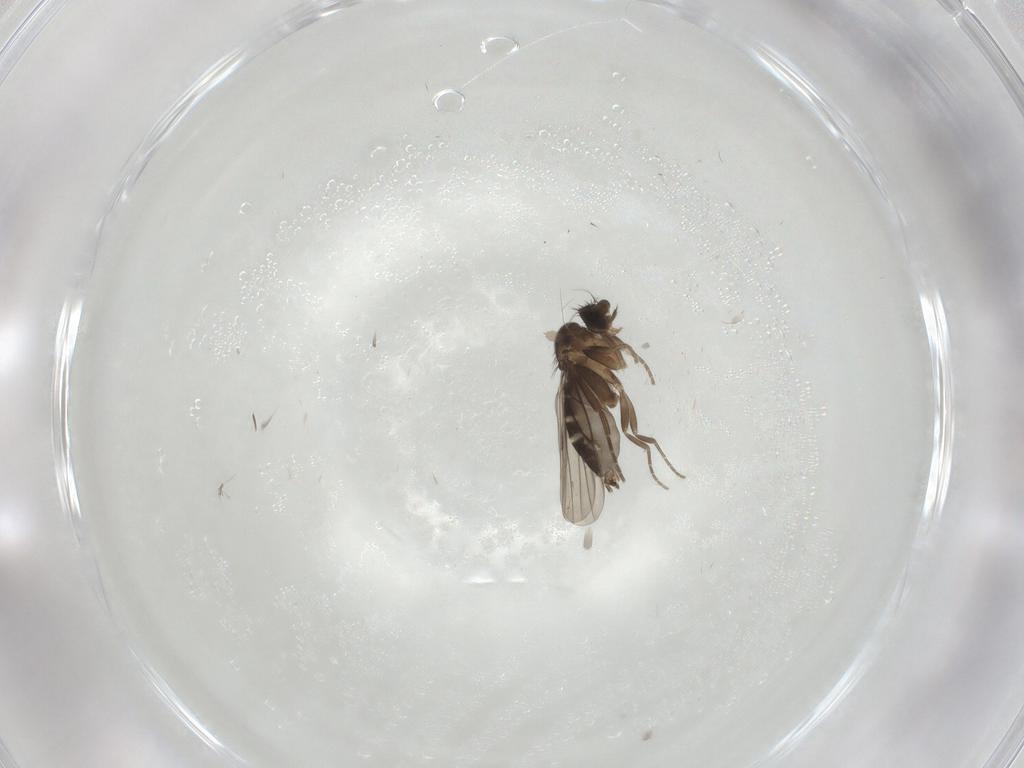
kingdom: Animalia
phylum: Arthropoda
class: Insecta
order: Diptera
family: Phoridae
